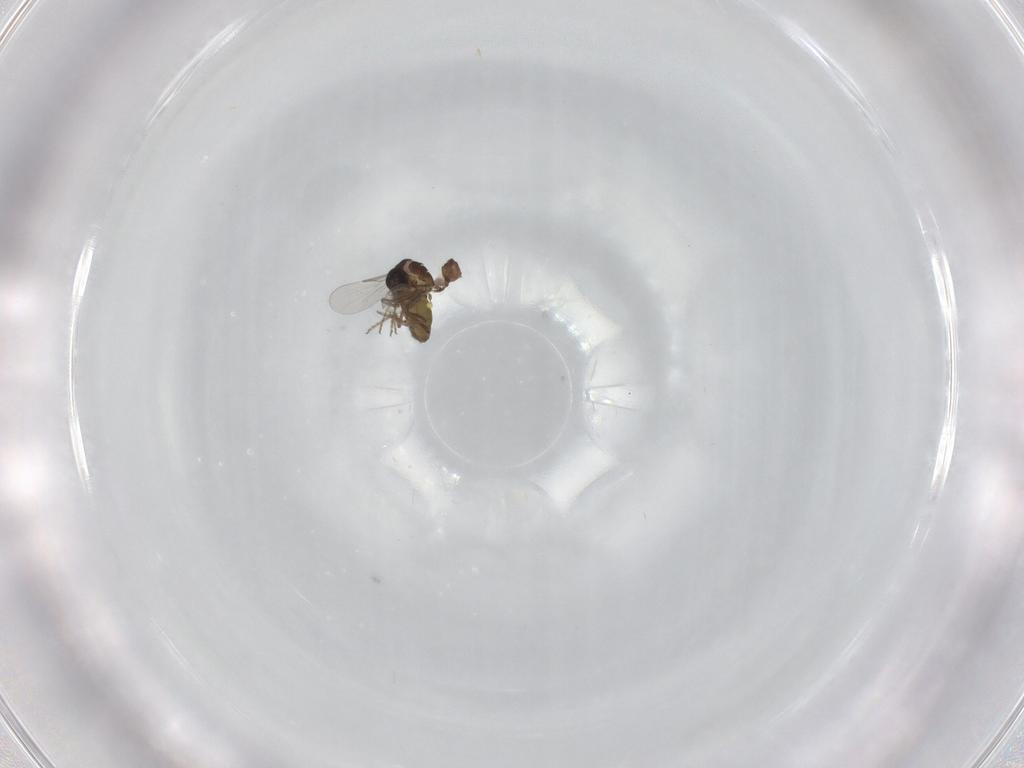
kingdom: Animalia
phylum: Arthropoda
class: Insecta
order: Diptera
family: Ceratopogonidae
